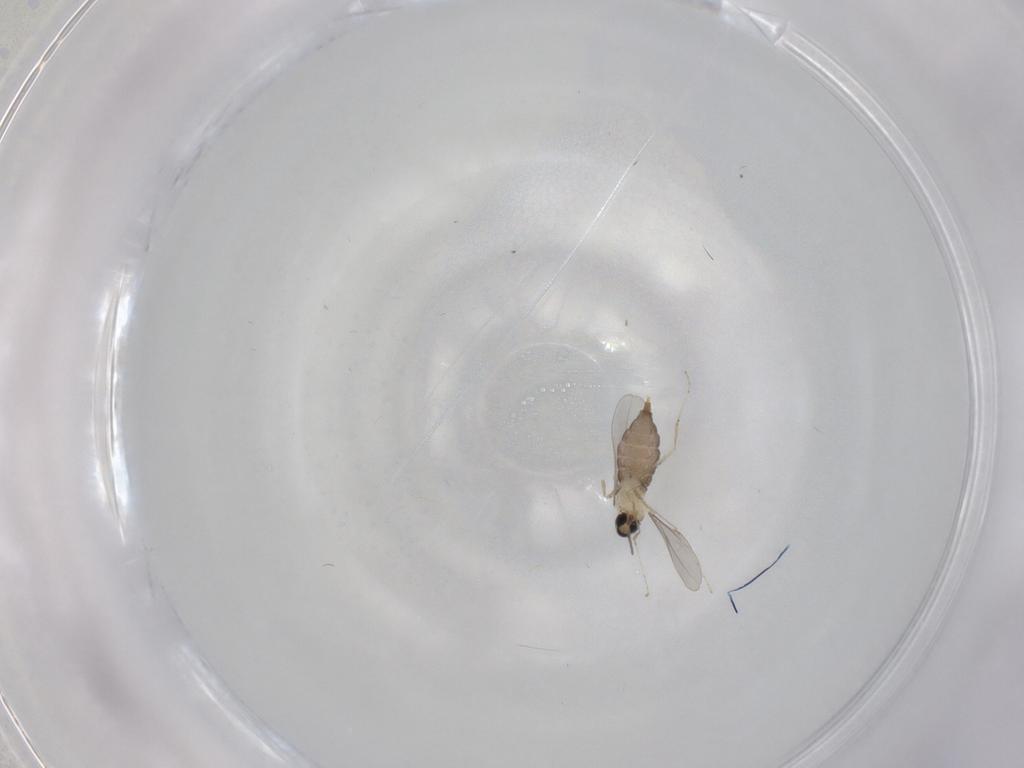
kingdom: Animalia
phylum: Arthropoda
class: Insecta
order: Diptera
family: Cecidomyiidae
